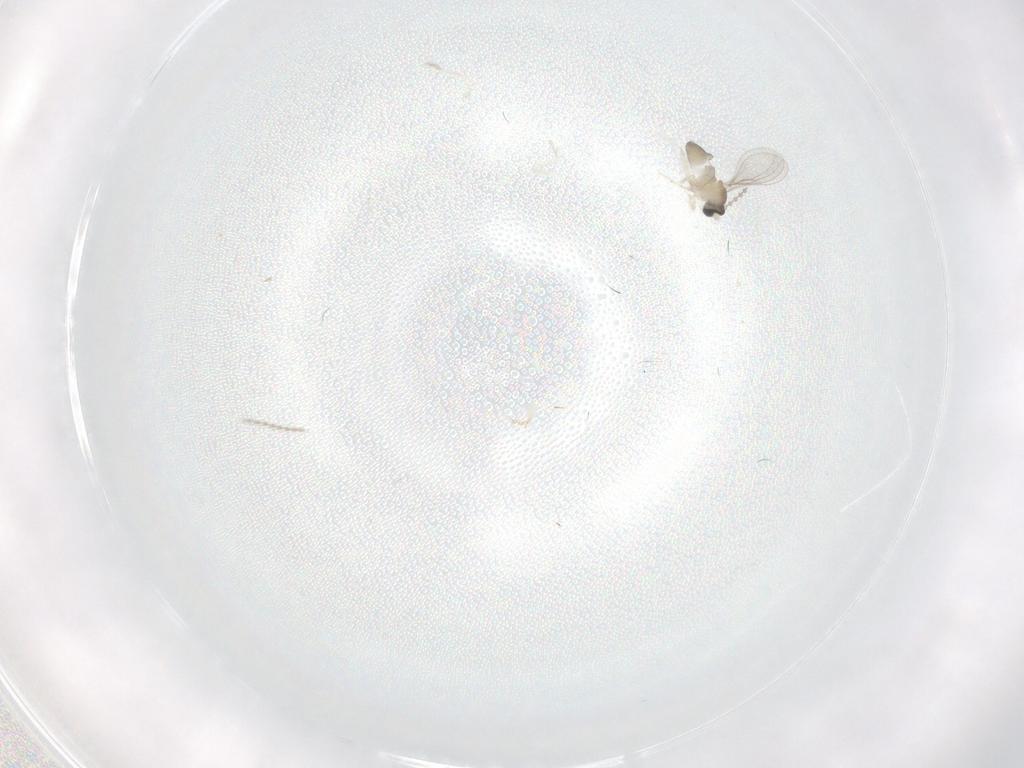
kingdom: Animalia
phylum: Arthropoda
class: Insecta
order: Diptera
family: Cecidomyiidae
